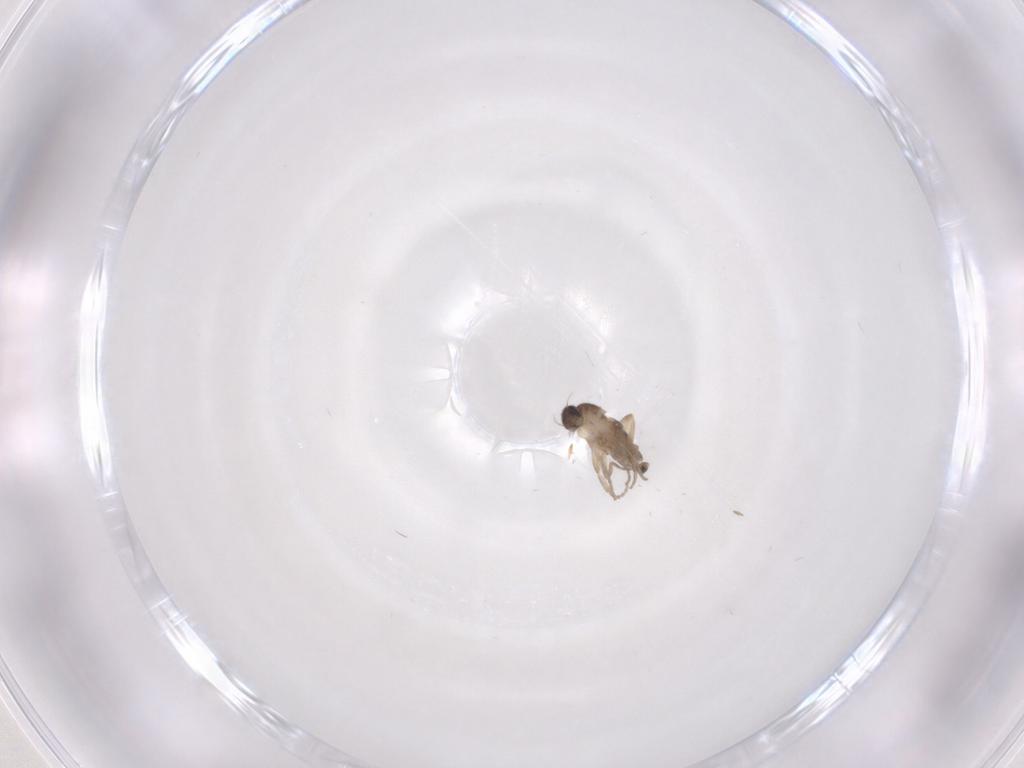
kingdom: Animalia
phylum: Arthropoda
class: Insecta
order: Diptera
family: Phoridae
